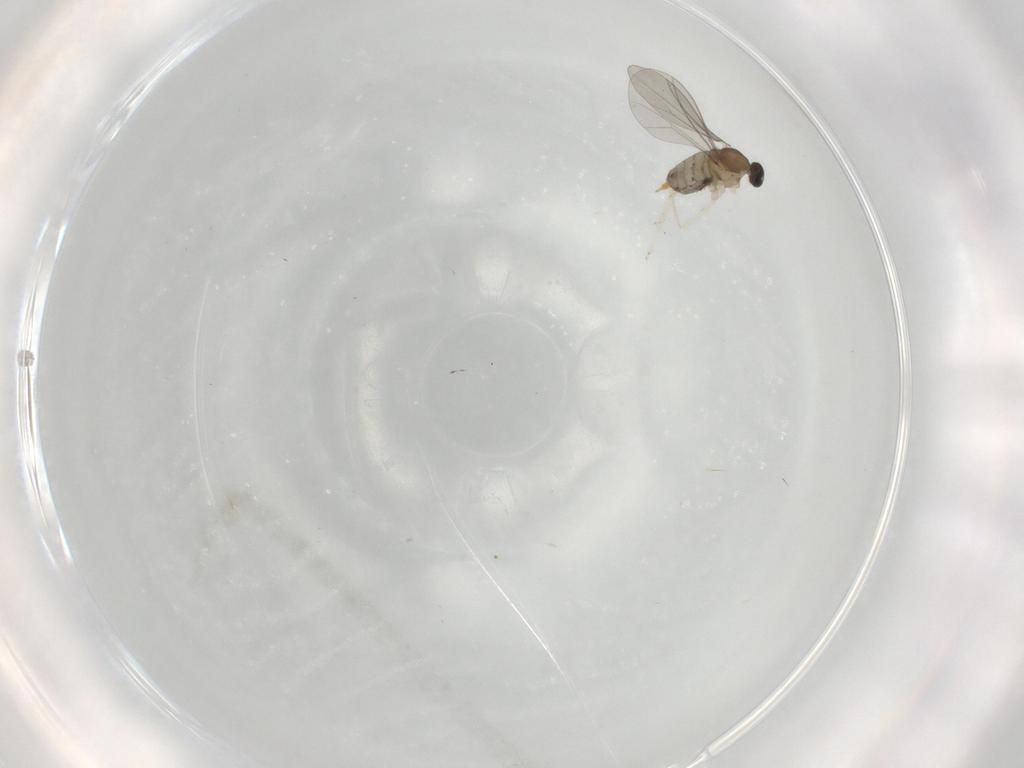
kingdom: Animalia
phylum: Arthropoda
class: Insecta
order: Diptera
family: Cecidomyiidae
